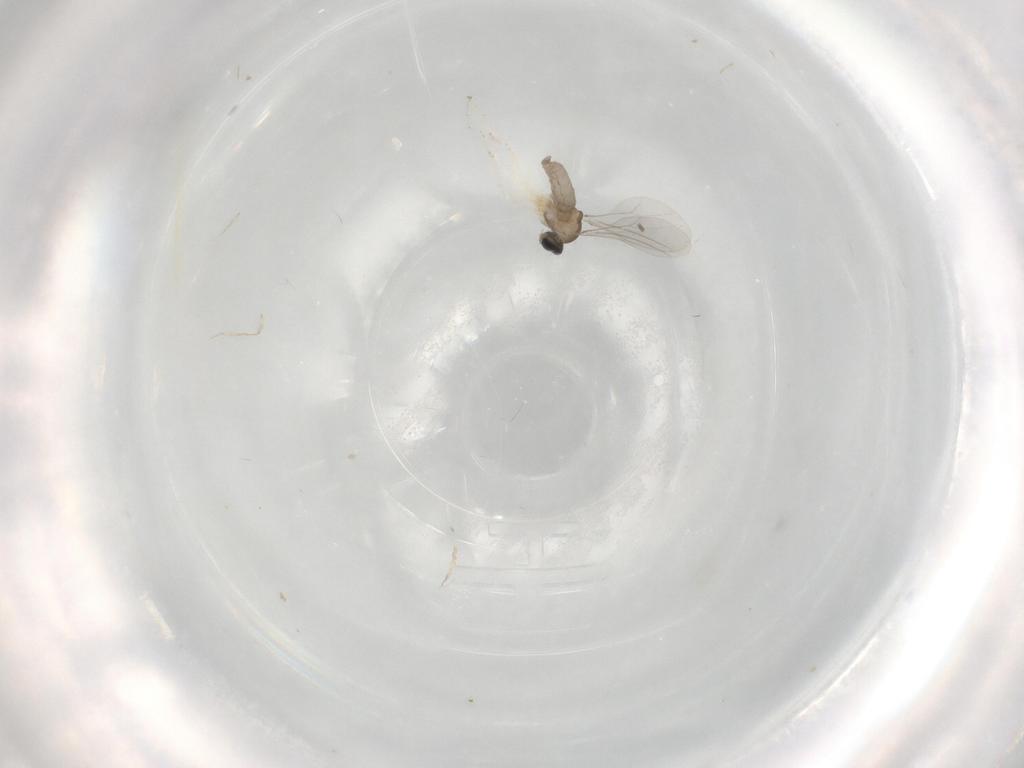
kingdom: Animalia
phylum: Arthropoda
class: Insecta
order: Diptera
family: Cecidomyiidae
